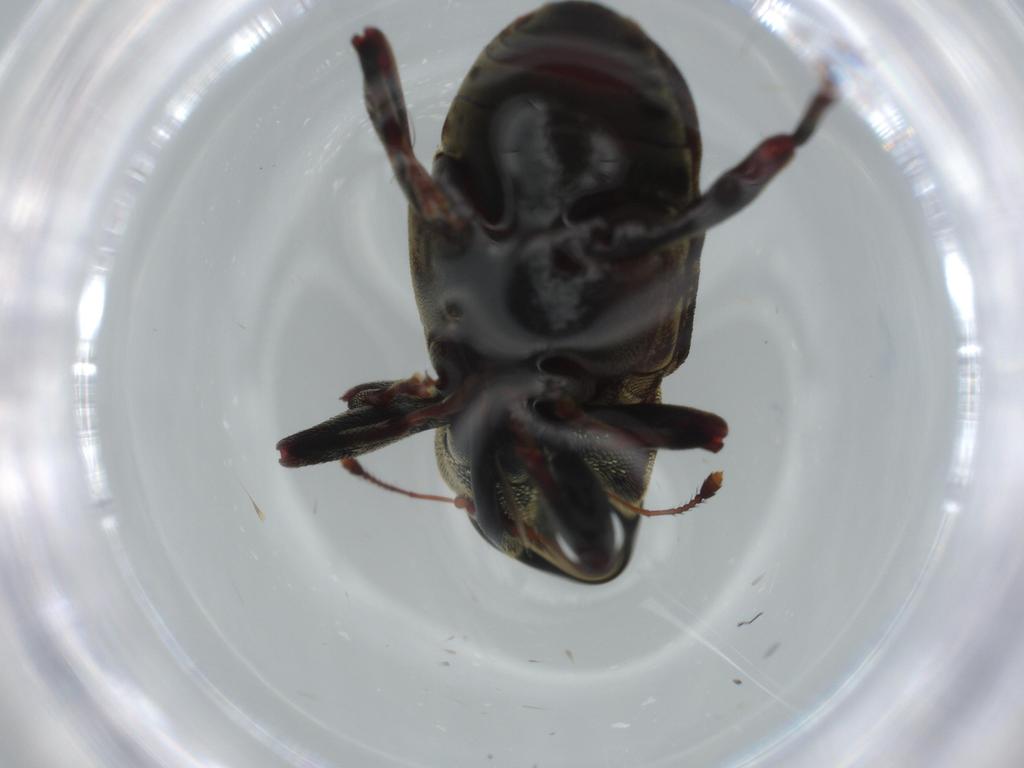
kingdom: Animalia
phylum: Arthropoda
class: Insecta
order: Coleoptera
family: Curculionidae
